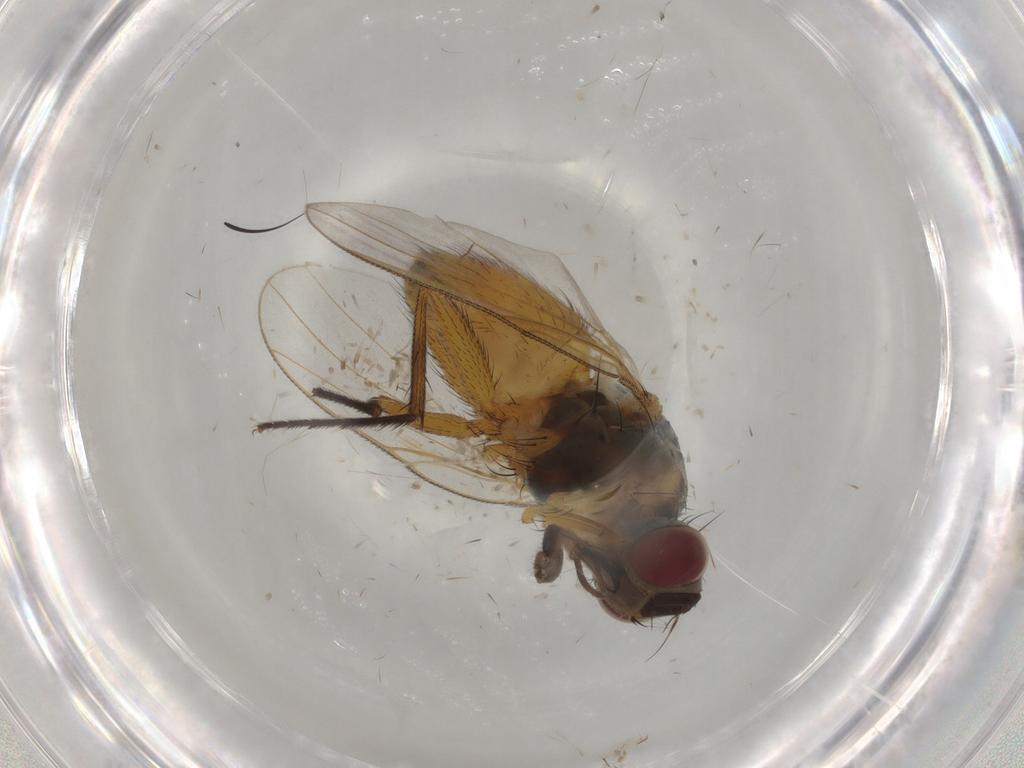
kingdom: Animalia
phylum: Arthropoda
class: Insecta
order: Diptera
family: Muscidae
